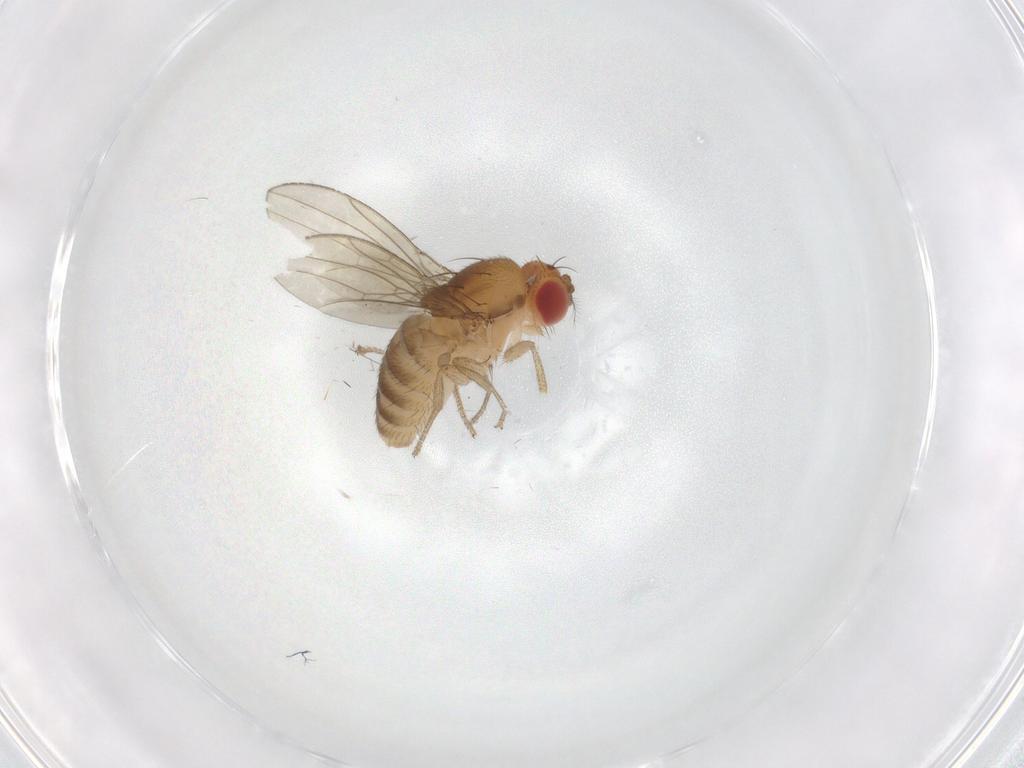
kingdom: Animalia
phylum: Arthropoda
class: Insecta
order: Diptera
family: Drosophilidae
